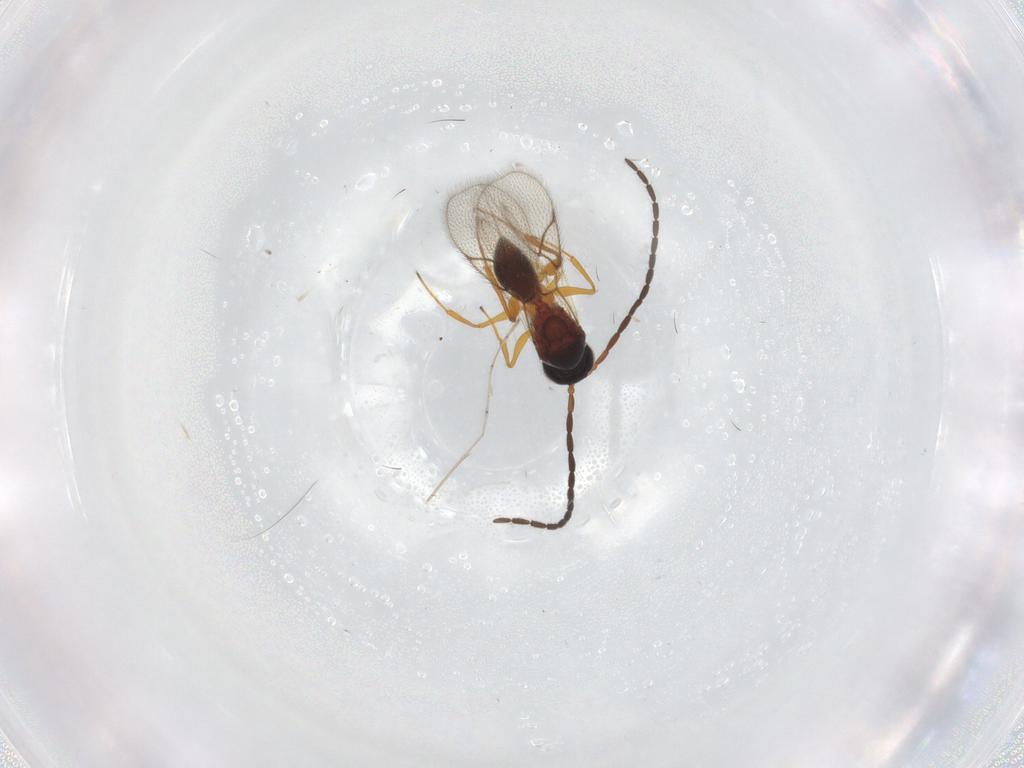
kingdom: Animalia
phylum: Arthropoda
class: Insecta
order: Hymenoptera
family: Figitidae
